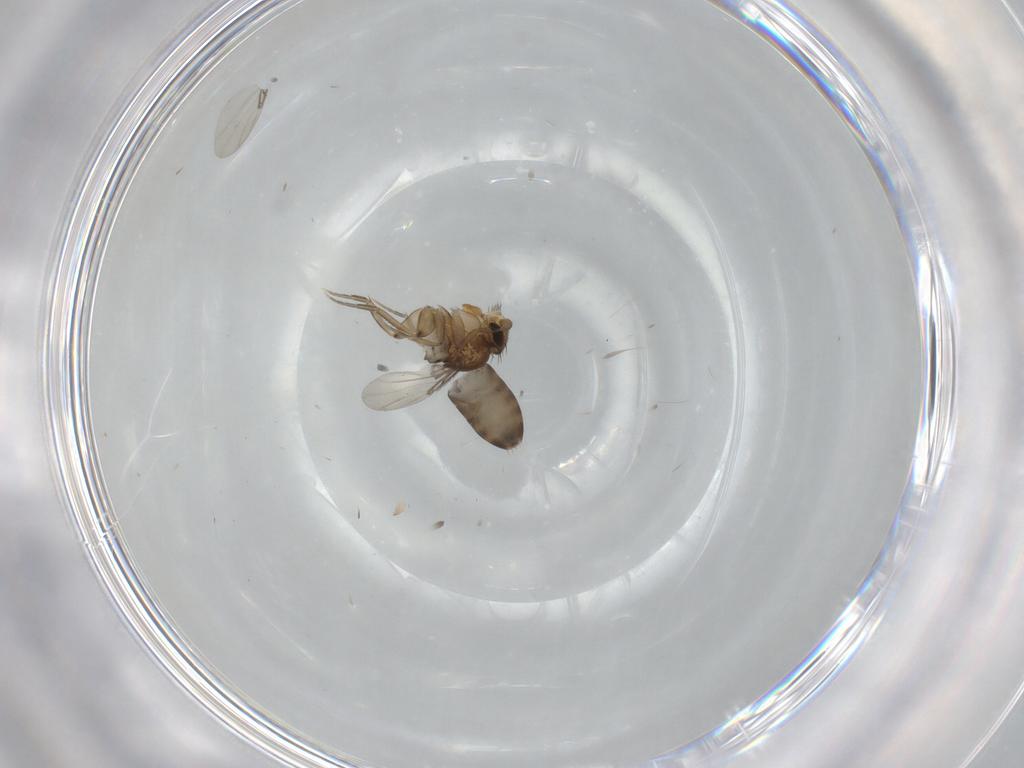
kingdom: Animalia
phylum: Arthropoda
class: Insecta
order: Diptera
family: Phoridae
